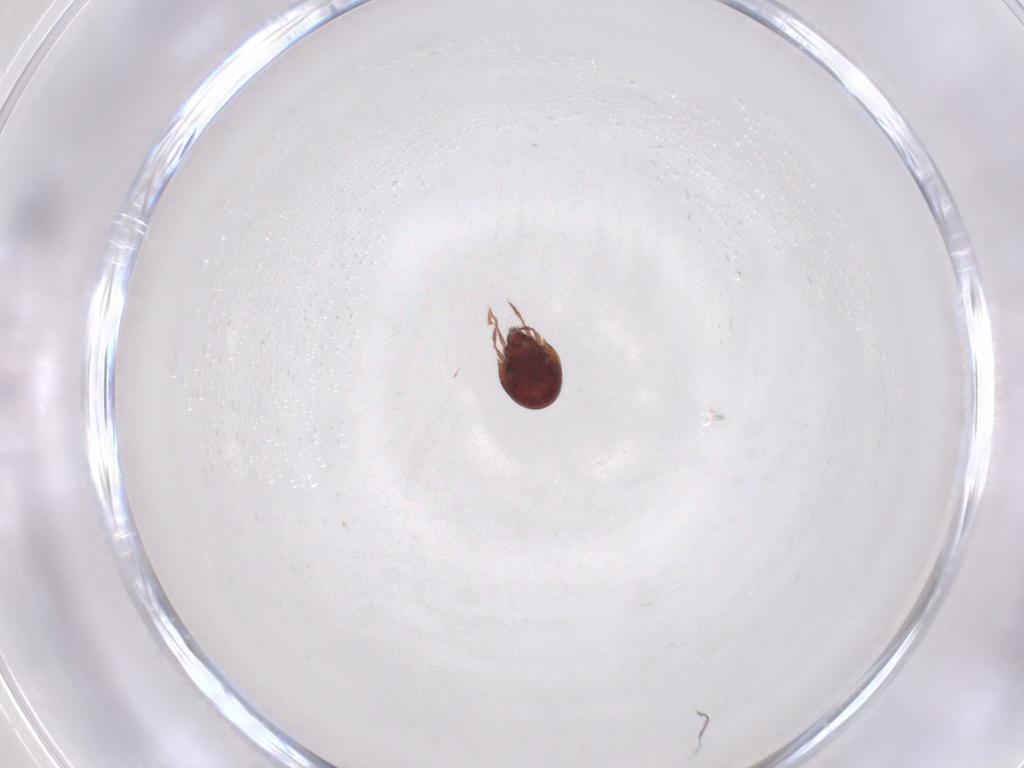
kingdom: Animalia
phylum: Arthropoda
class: Arachnida
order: Sarcoptiformes
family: Ceratozetidae
